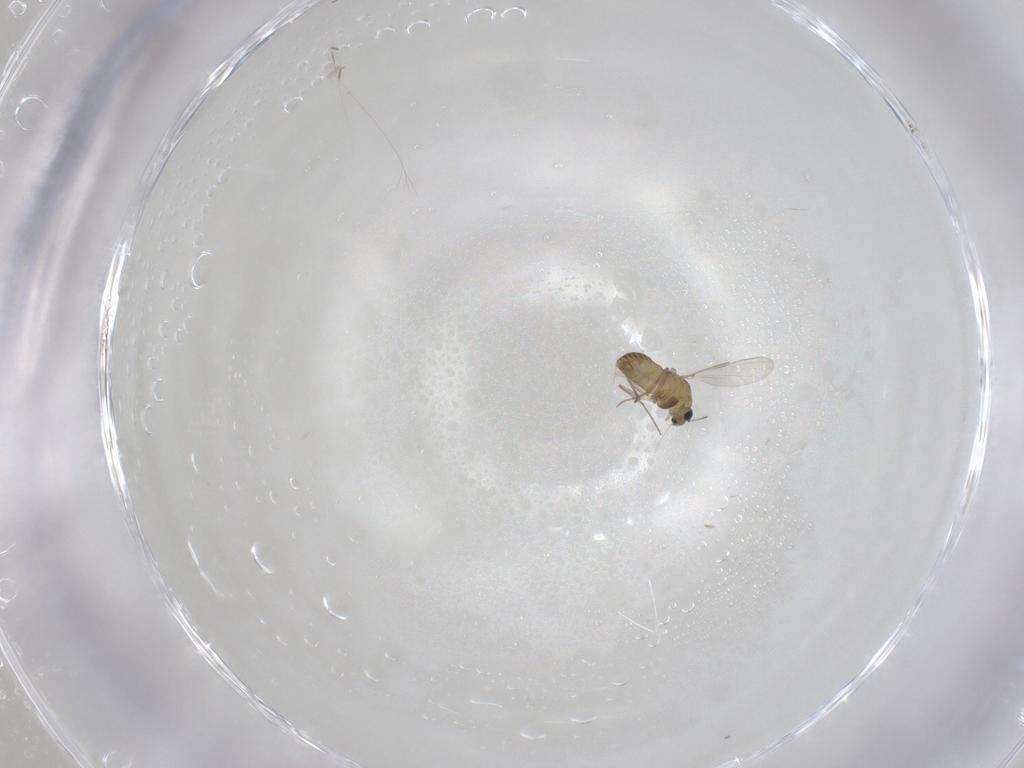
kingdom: Animalia
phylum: Arthropoda
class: Insecta
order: Diptera
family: Chironomidae
